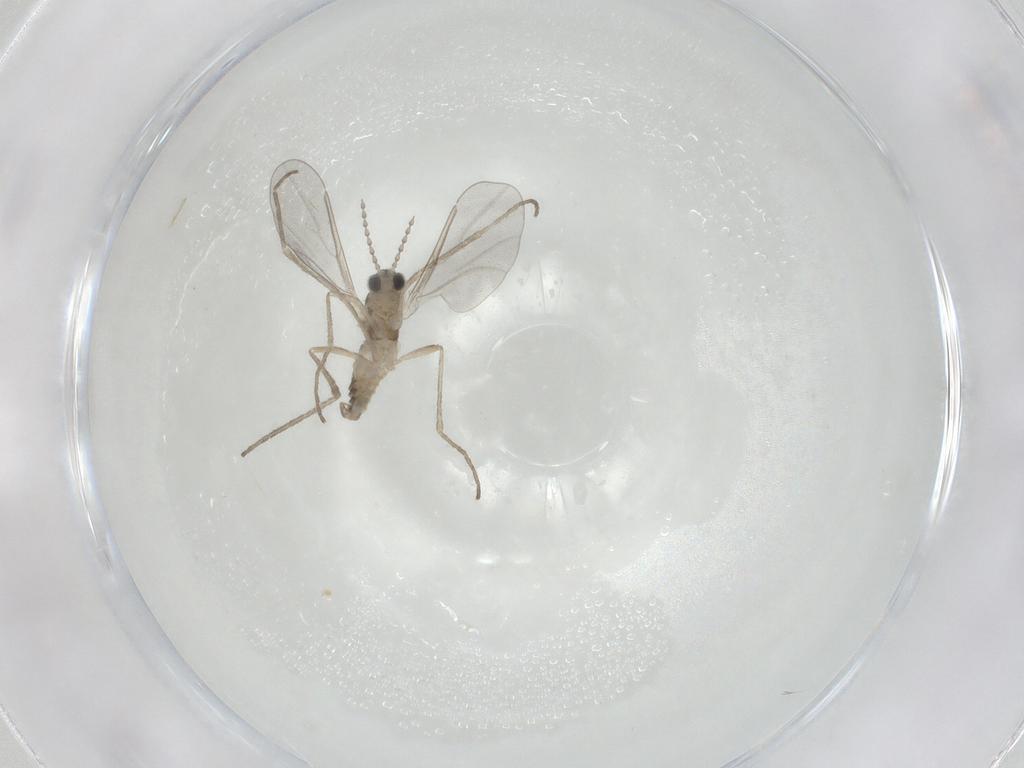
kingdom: Animalia
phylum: Arthropoda
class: Insecta
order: Diptera
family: Cecidomyiidae
